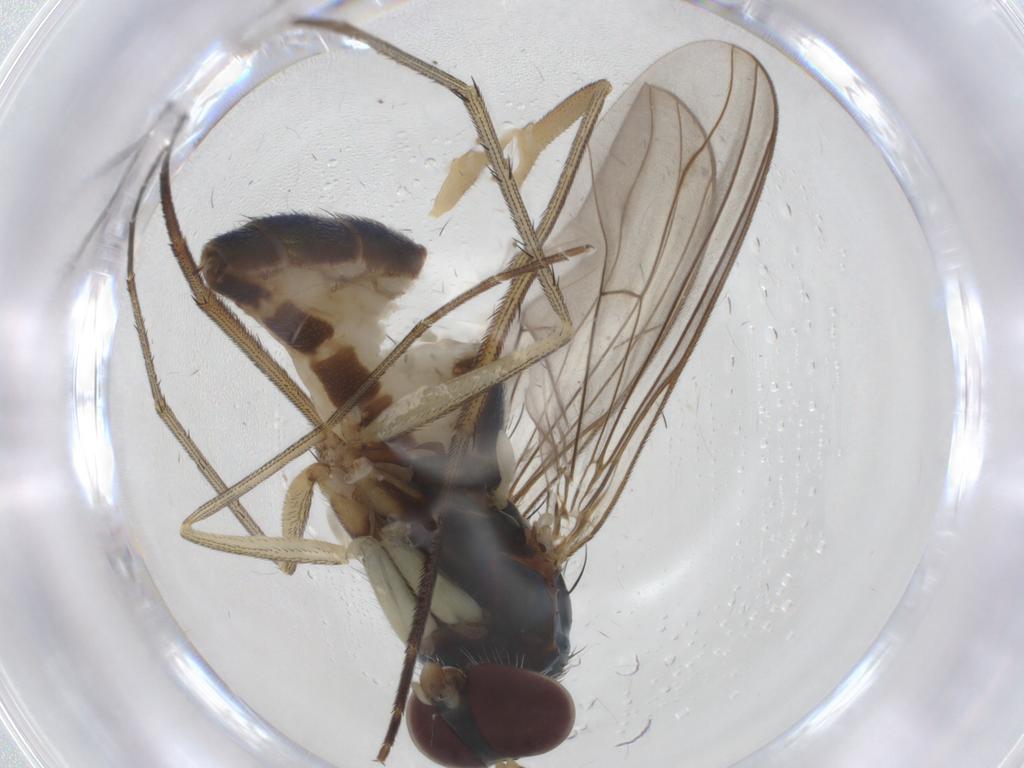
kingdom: Animalia
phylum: Arthropoda
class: Insecta
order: Diptera
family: Dolichopodidae
